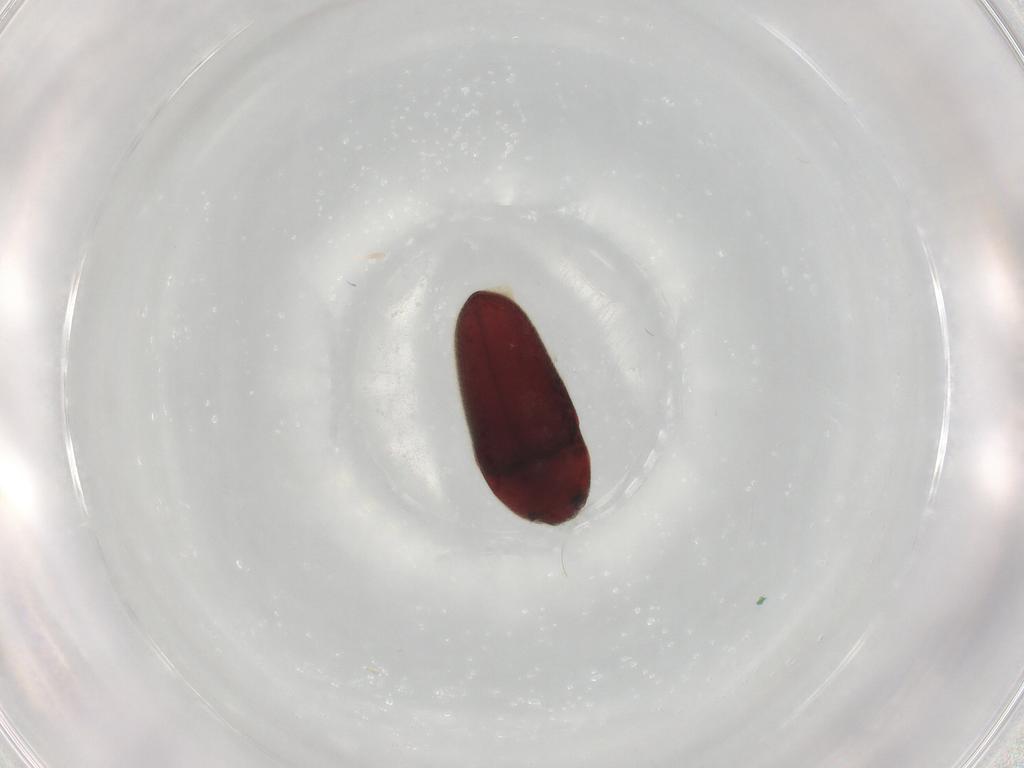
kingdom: Animalia
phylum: Arthropoda
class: Insecta
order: Coleoptera
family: Throscidae
